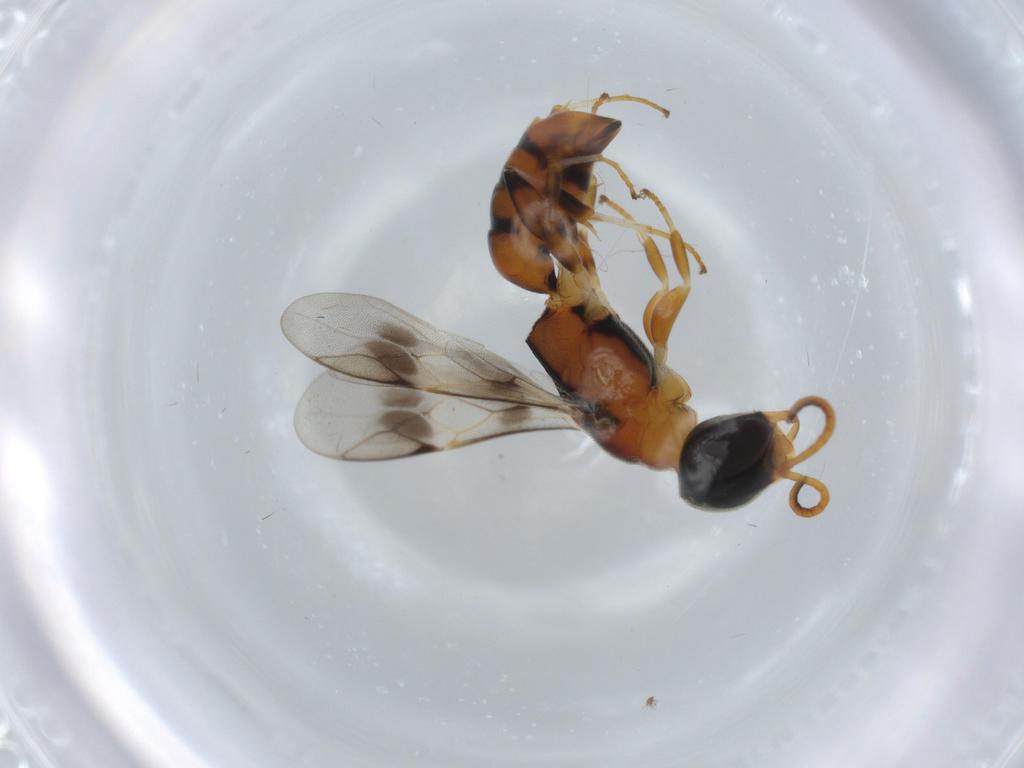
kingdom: Animalia
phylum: Arthropoda
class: Insecta
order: Hymenoptera
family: Crabronidae
